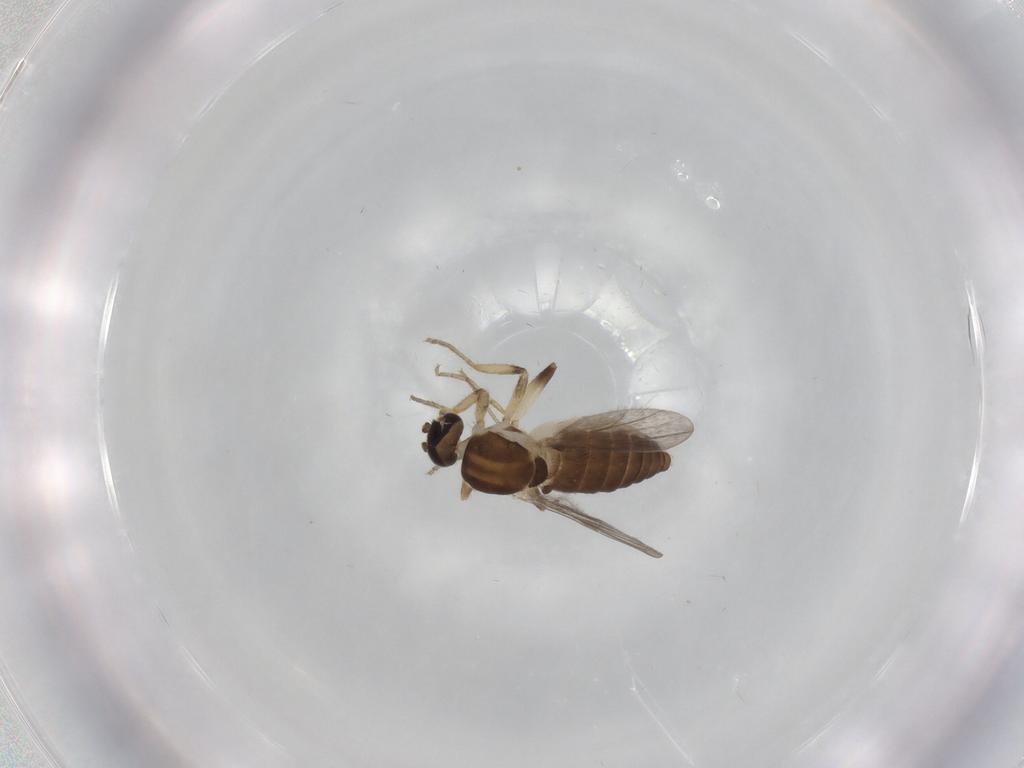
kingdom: Animalia
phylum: Arthropoda
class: Insecta
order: Diptera
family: Ceratopogonidae
